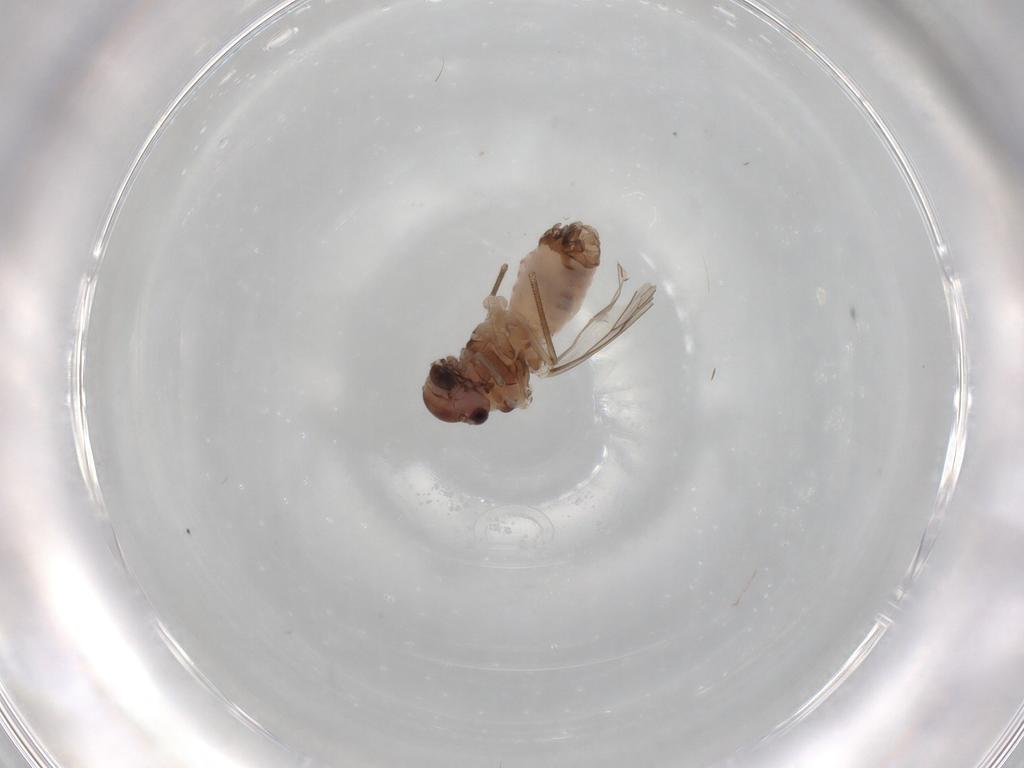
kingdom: Animalia
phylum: Arthropoda
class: Insecta
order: Psocodea
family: Peripsocidae
